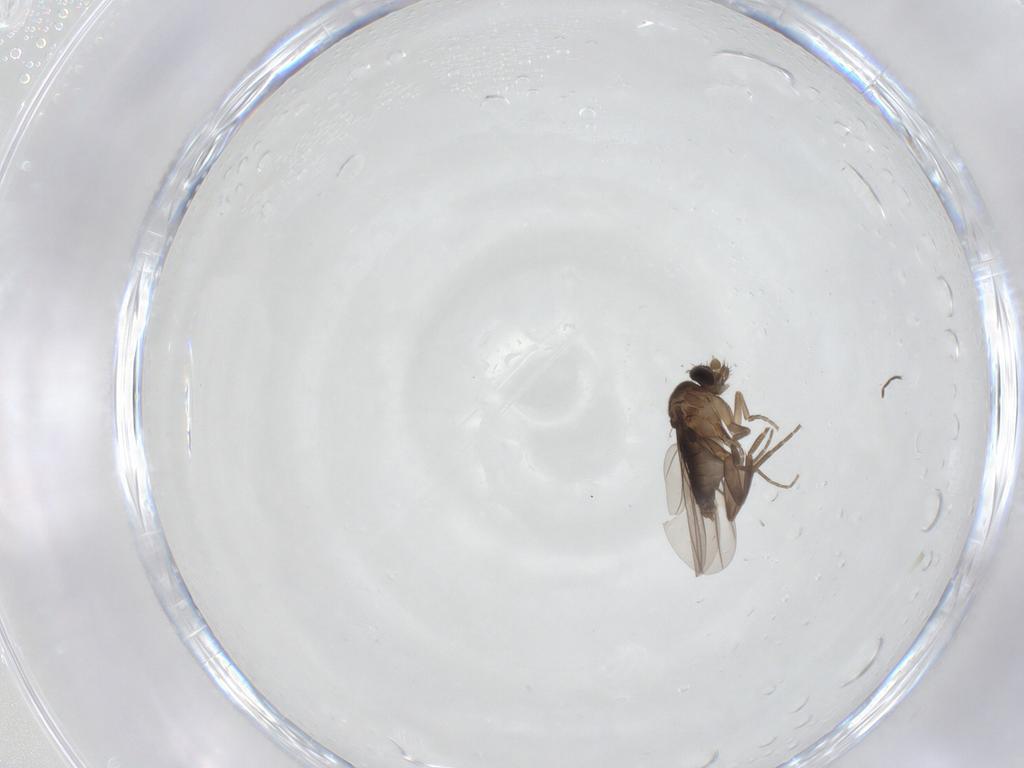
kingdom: Animalia
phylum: Arthropoda
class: Insecta
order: Diptera
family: Phoridae
